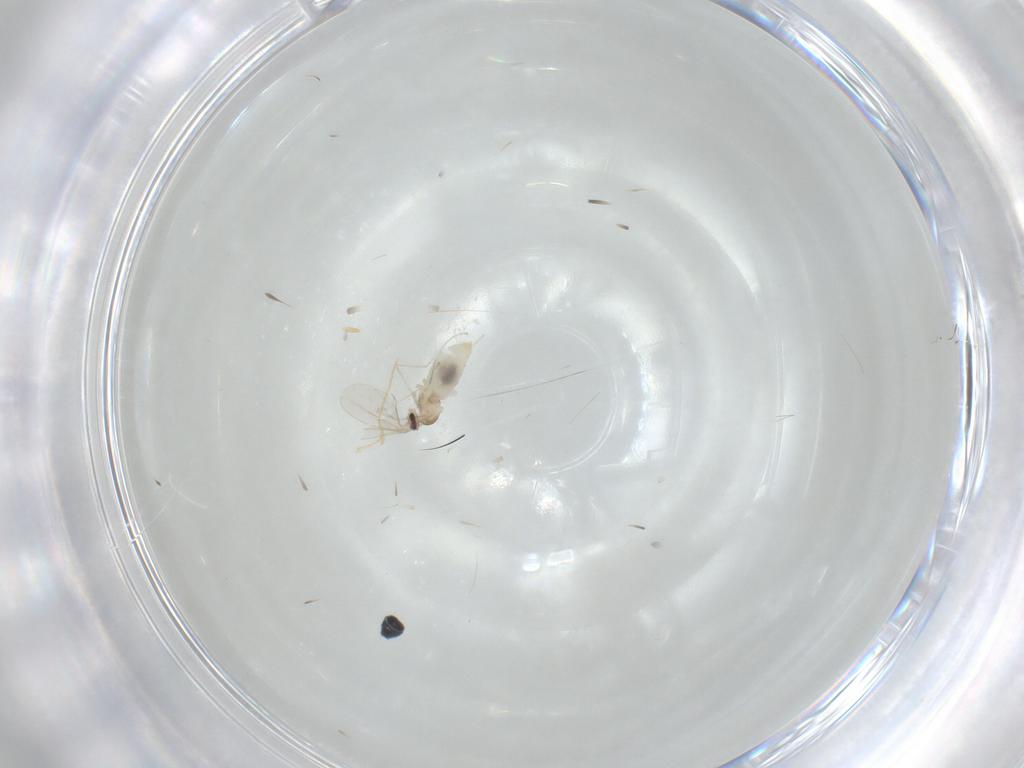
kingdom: Animalia
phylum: Arthropoda
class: Insecta
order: Diptera
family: Cecidomyiidae
